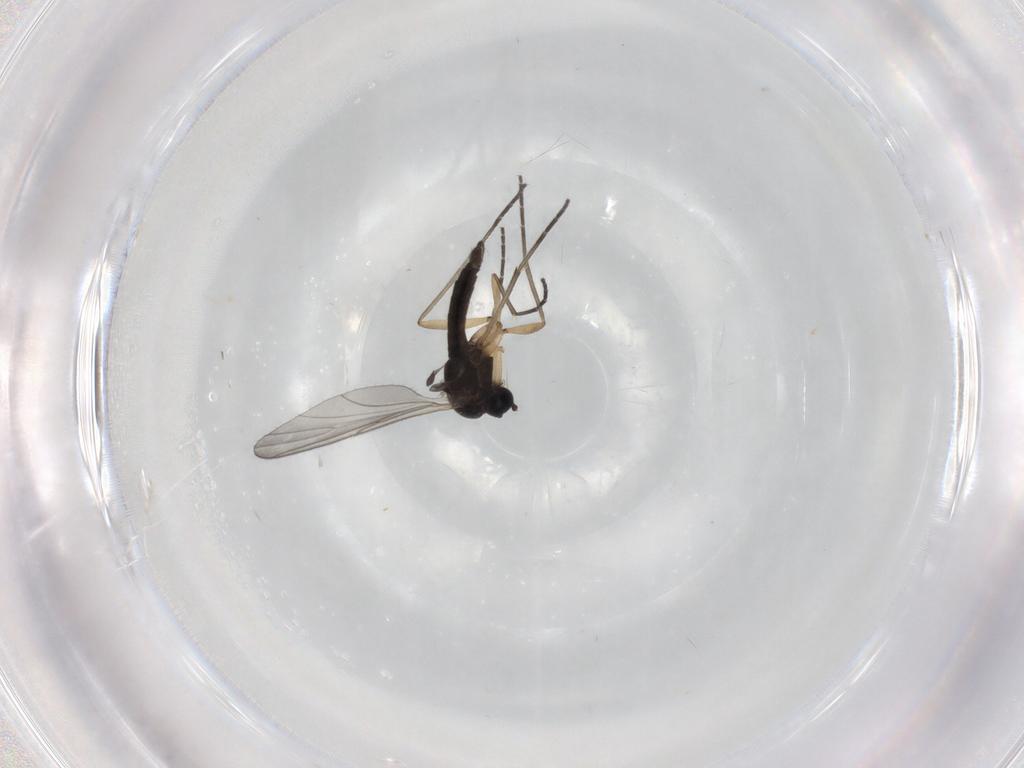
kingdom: Animalia
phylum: Arthropoda
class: Insecta
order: Diptera
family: Sciaridae
